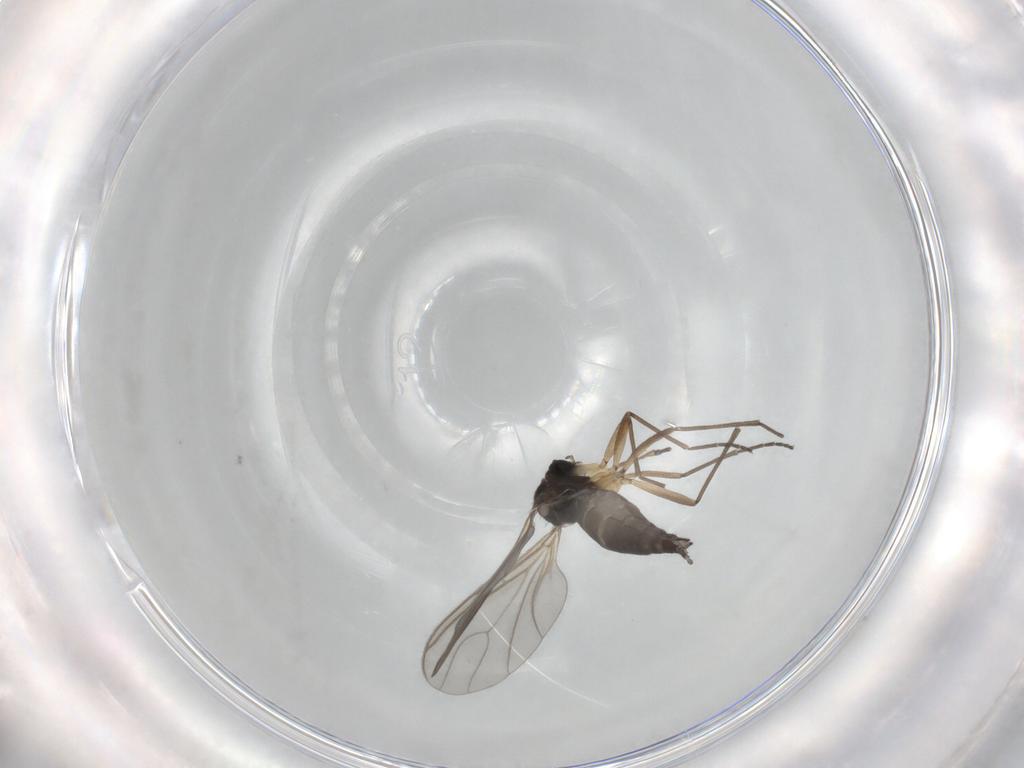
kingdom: Animalia
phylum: Arthropoda
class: Insecta
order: Diptera
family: Sciaridae
